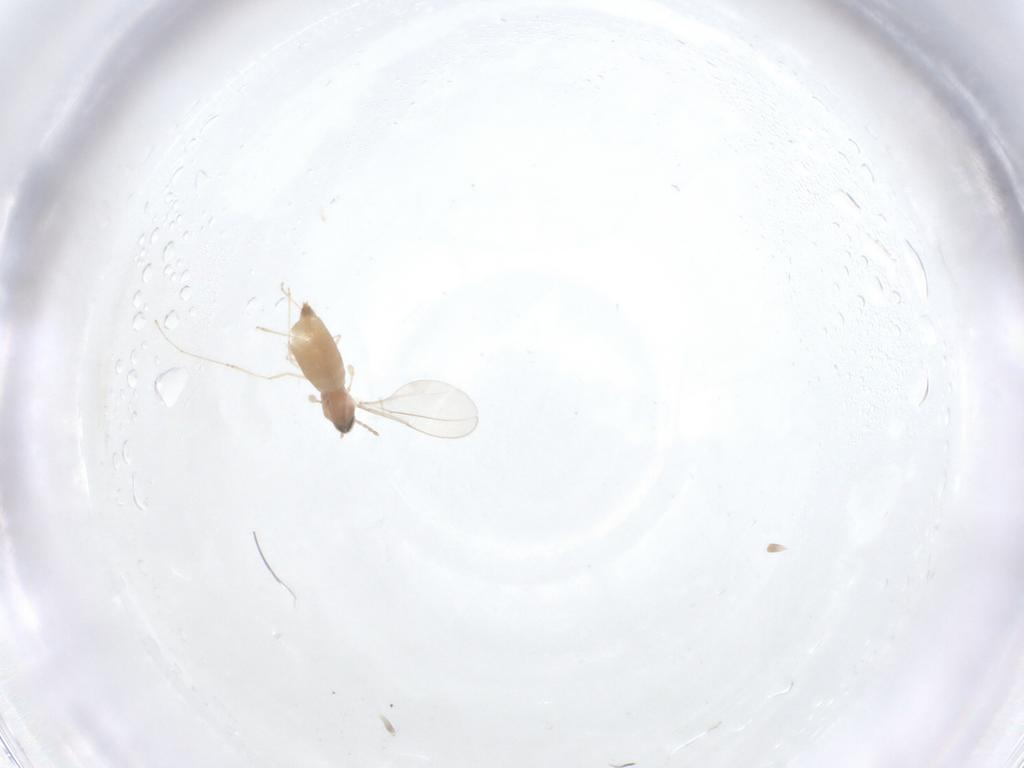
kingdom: Animalia
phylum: Arthropoda
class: Insecta
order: Diptera
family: Cecidomyiidae
